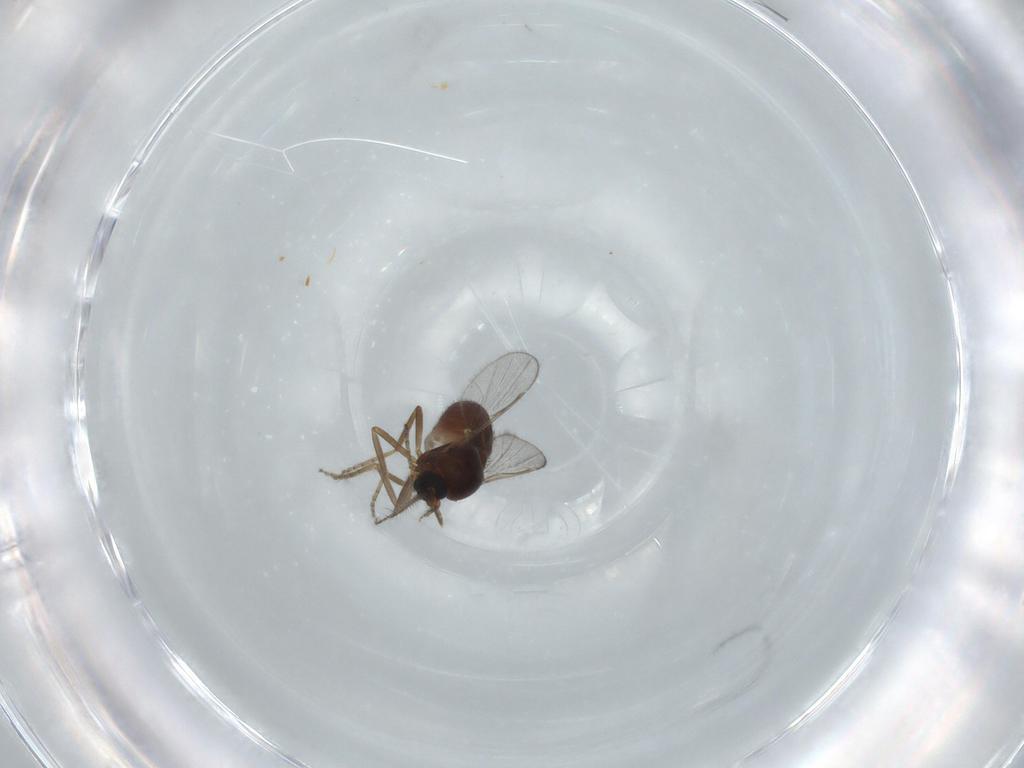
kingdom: Animalia
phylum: Arthropoda
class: Insecta
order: Diptera
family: Ceratopogonidae
